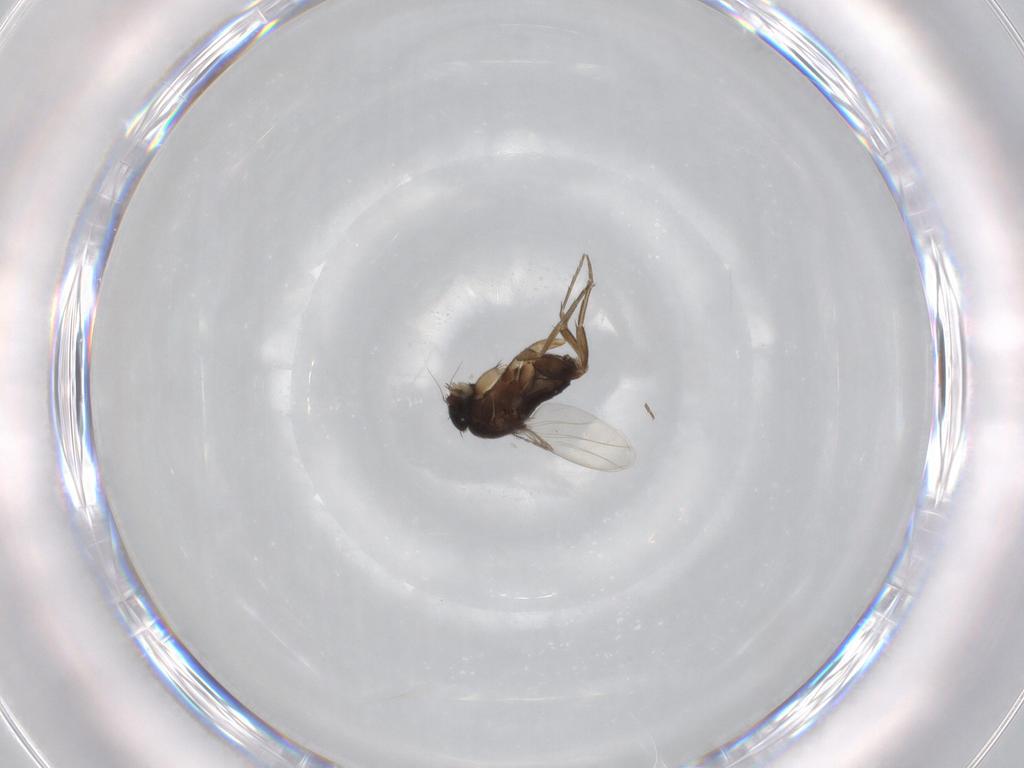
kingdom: Animalia
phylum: Arthropoda
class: Insecta
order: Diptera
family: Phoridae
